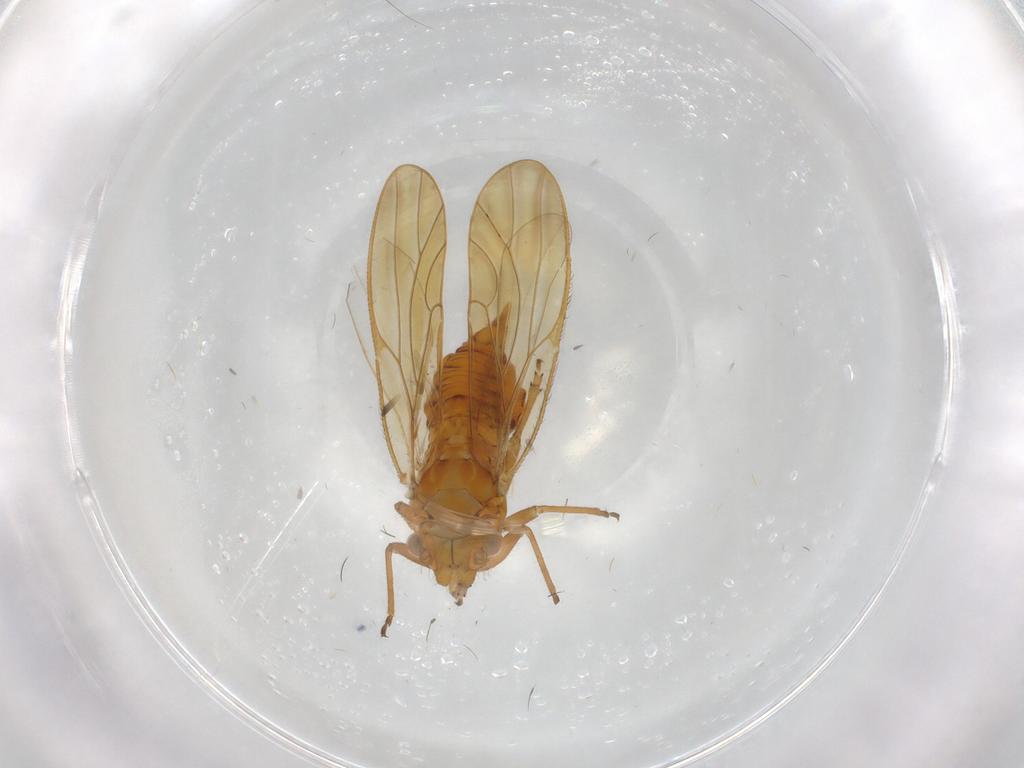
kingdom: Animalia
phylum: Arthropoda
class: Insecta
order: Hemiptera
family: Psyllidae
